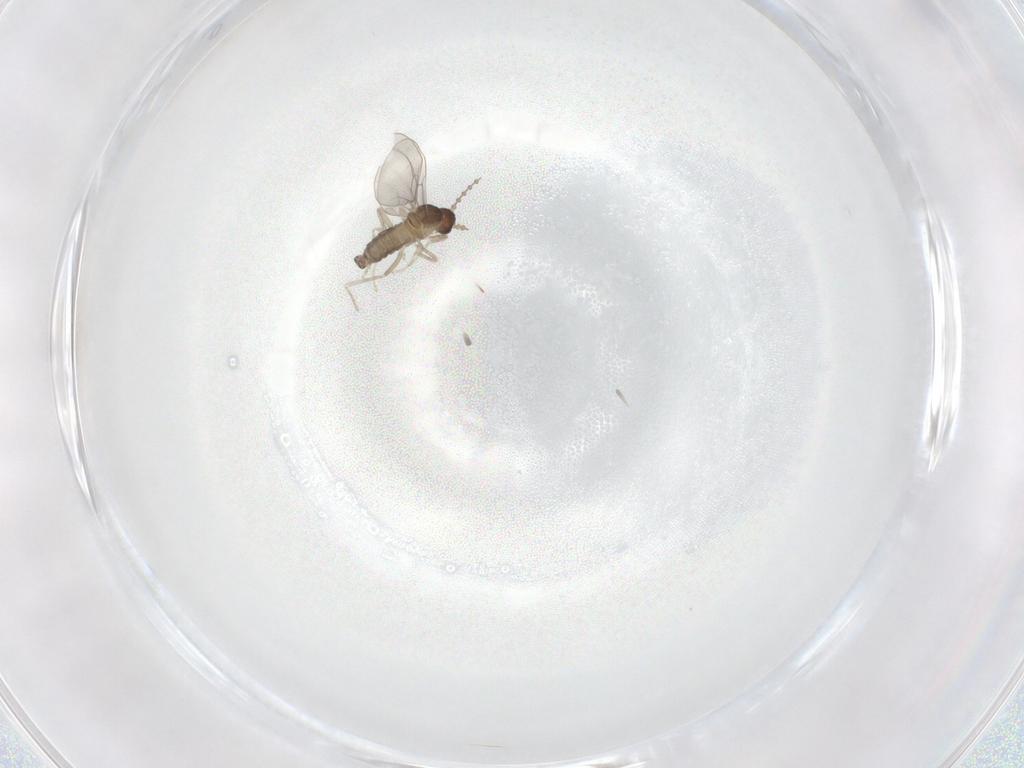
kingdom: Animalia
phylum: Arthropoda
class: Insecta
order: Diptera
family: Cecidomyiidae
